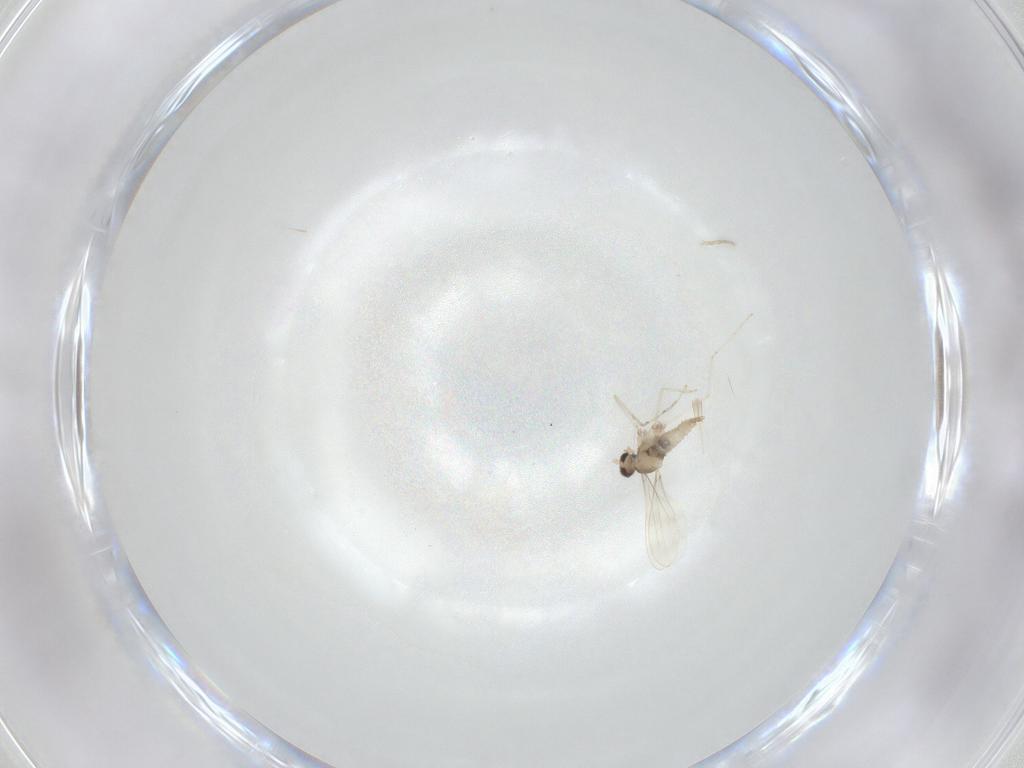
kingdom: Animalia
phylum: Arthropoda
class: Insecta
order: Diptera
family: Cecidomyiidae
